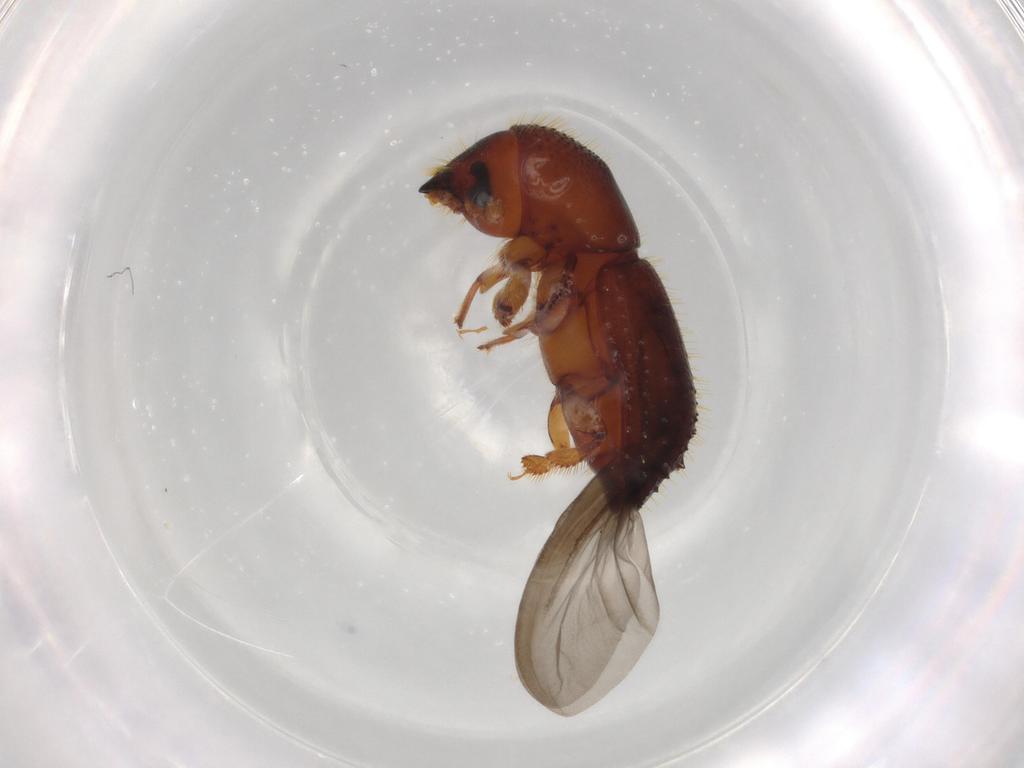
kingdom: Animalia
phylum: Arthropoda
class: Insecta
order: Coleoptera
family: Curculionidae
